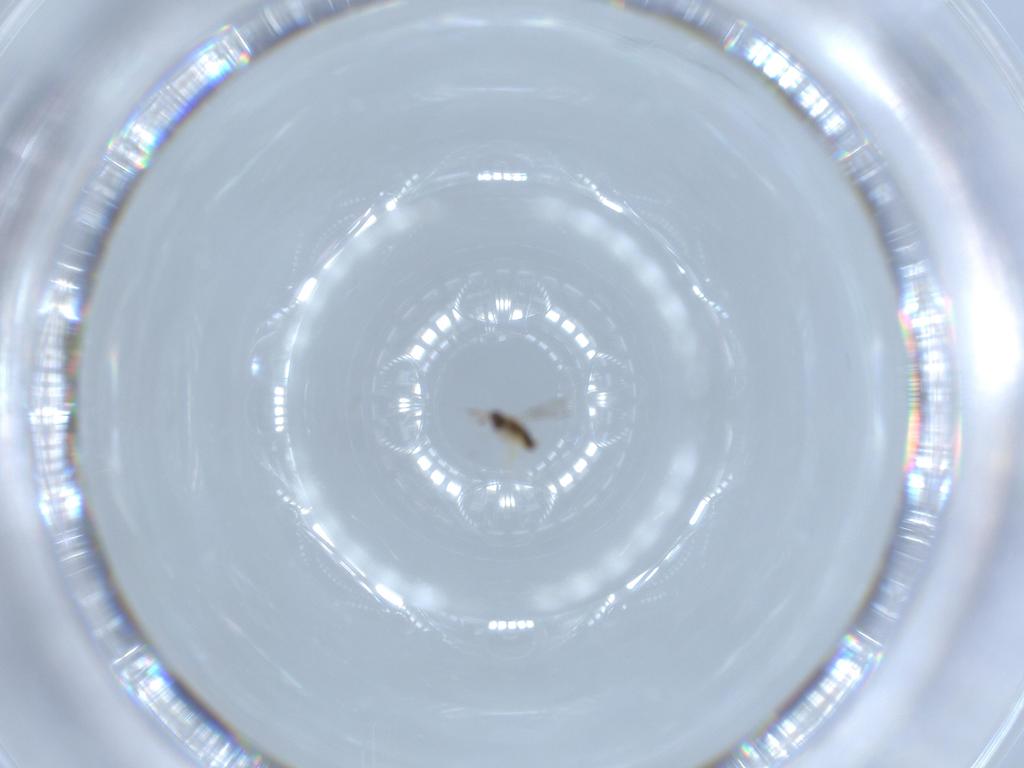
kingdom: Animalia
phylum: Arthropoda
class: Insecta
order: Hymenoptera
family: Aphelinidae
